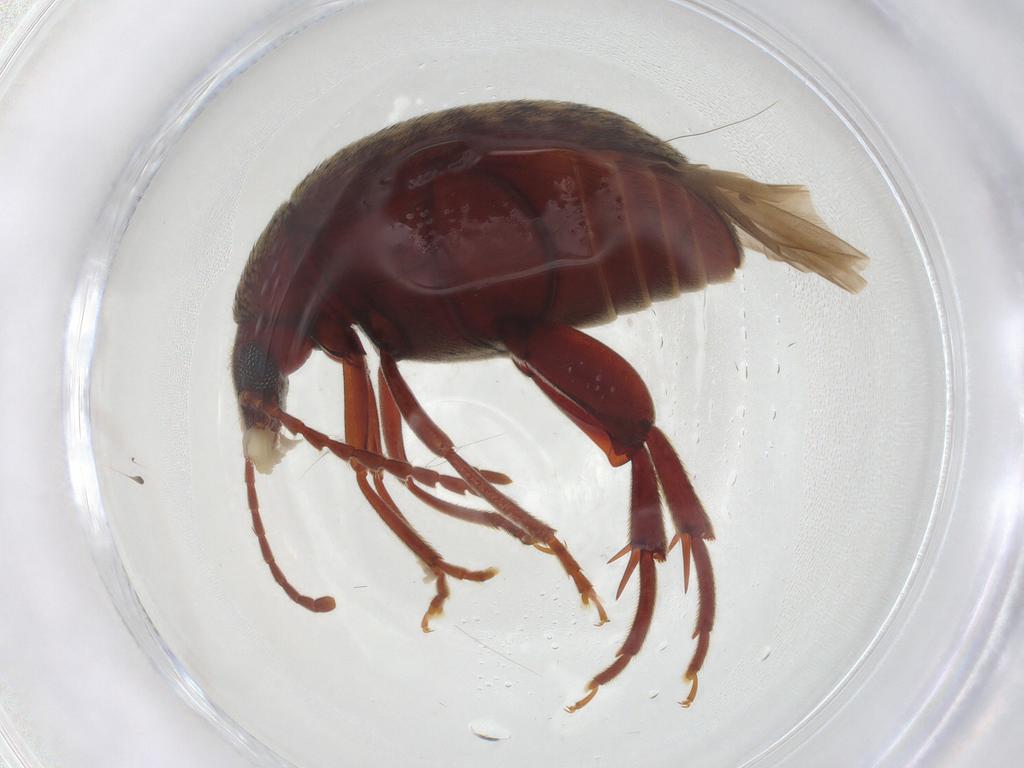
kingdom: Animalia
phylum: Arthropoda
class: Insecta
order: Coleoptera
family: Chrysomelidae
